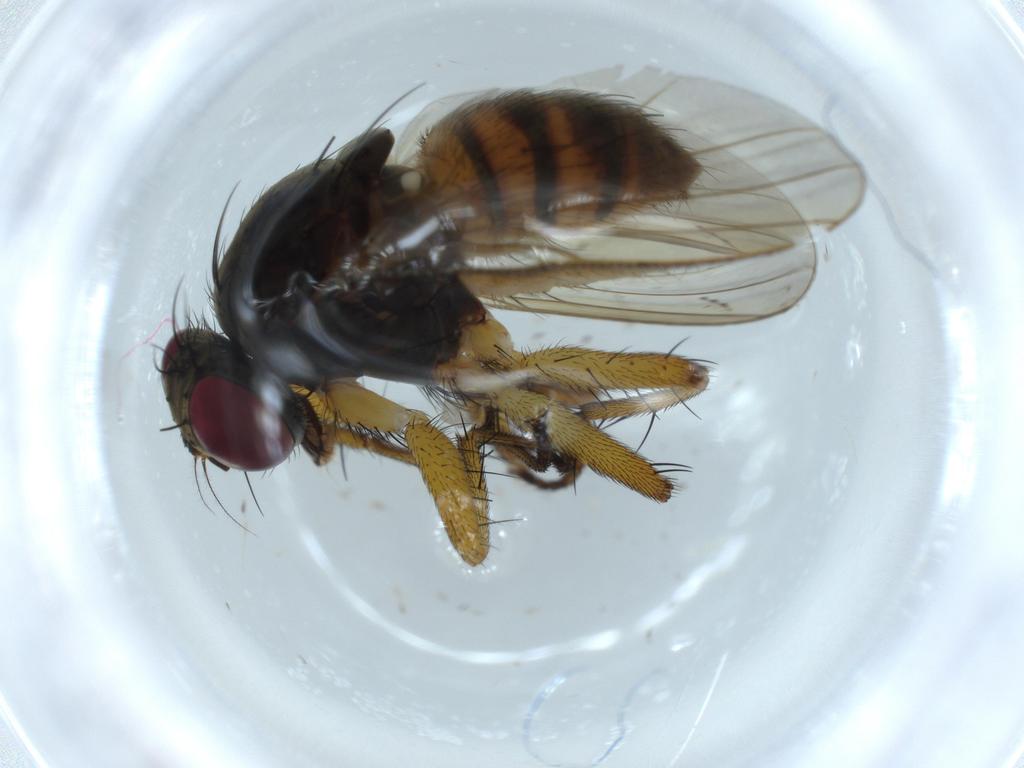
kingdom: Animalia
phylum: Arthropoda
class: Insecta
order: Diptera
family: Muscidae
